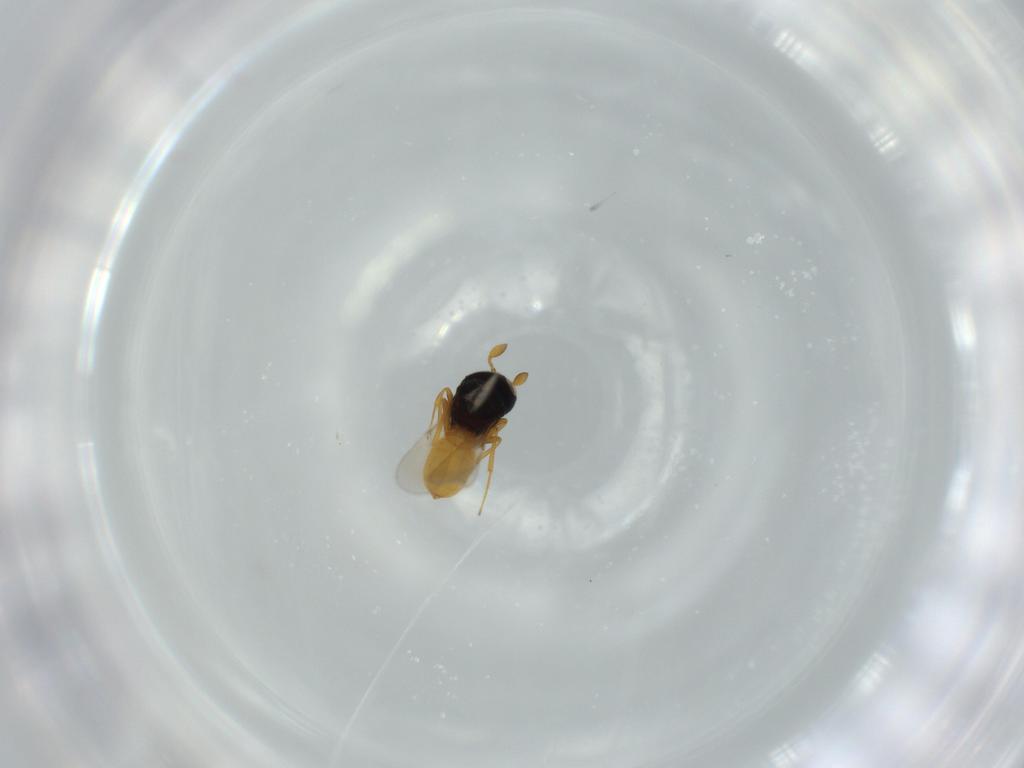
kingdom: Animalia
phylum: Arthropoda
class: Insecta
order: Hymenoptera
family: Scelionidae
